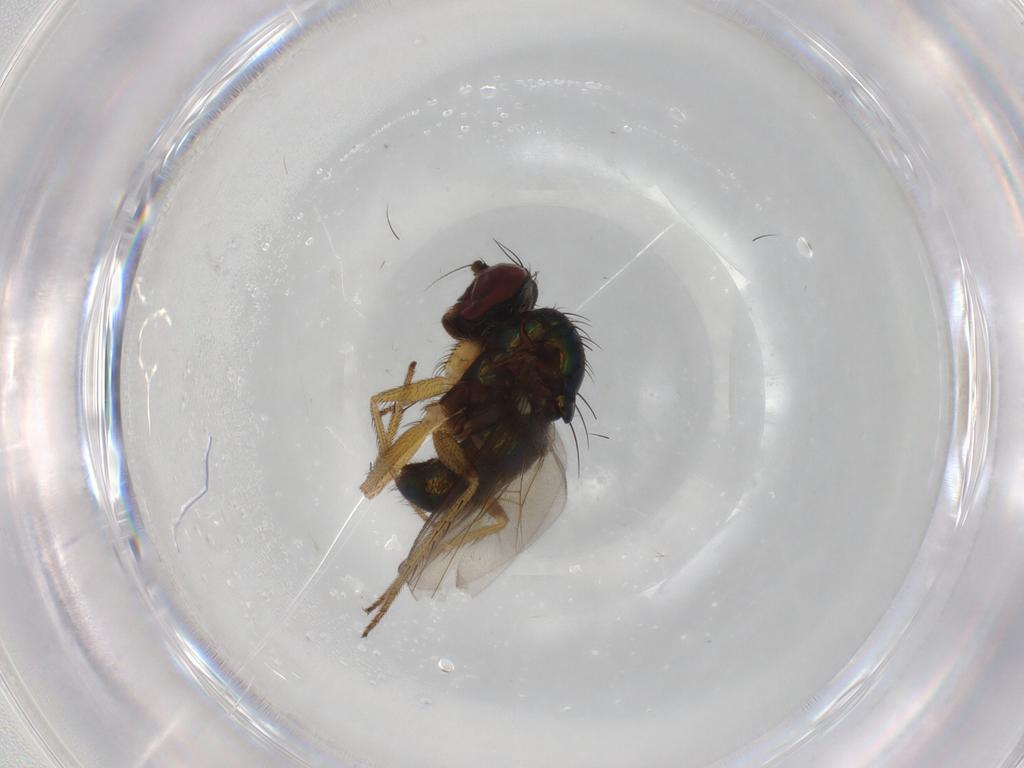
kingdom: Animalia
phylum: Arthropoda
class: Insecta
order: Diptera
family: Dolichopodidae
